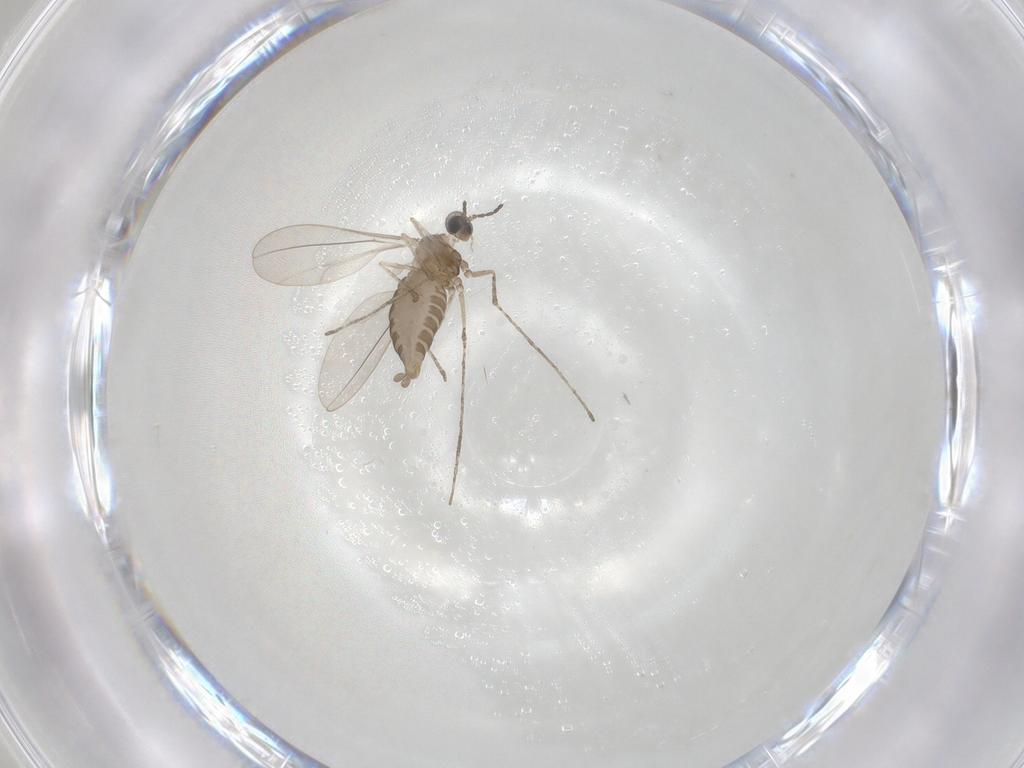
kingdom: Animalia
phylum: Arthropoda
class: Insecta
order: Diptera
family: Cecidomyiidae
